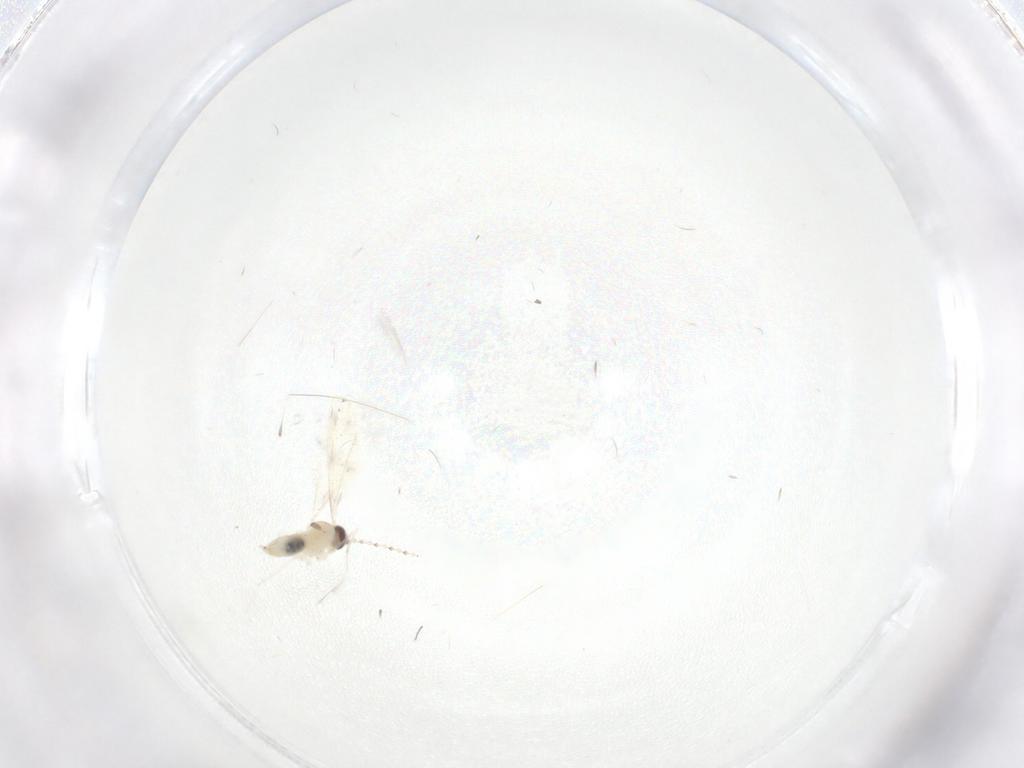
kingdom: Animalia
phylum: Arthropoda
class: Insecta
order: Diptera
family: Cecidomyiidae
